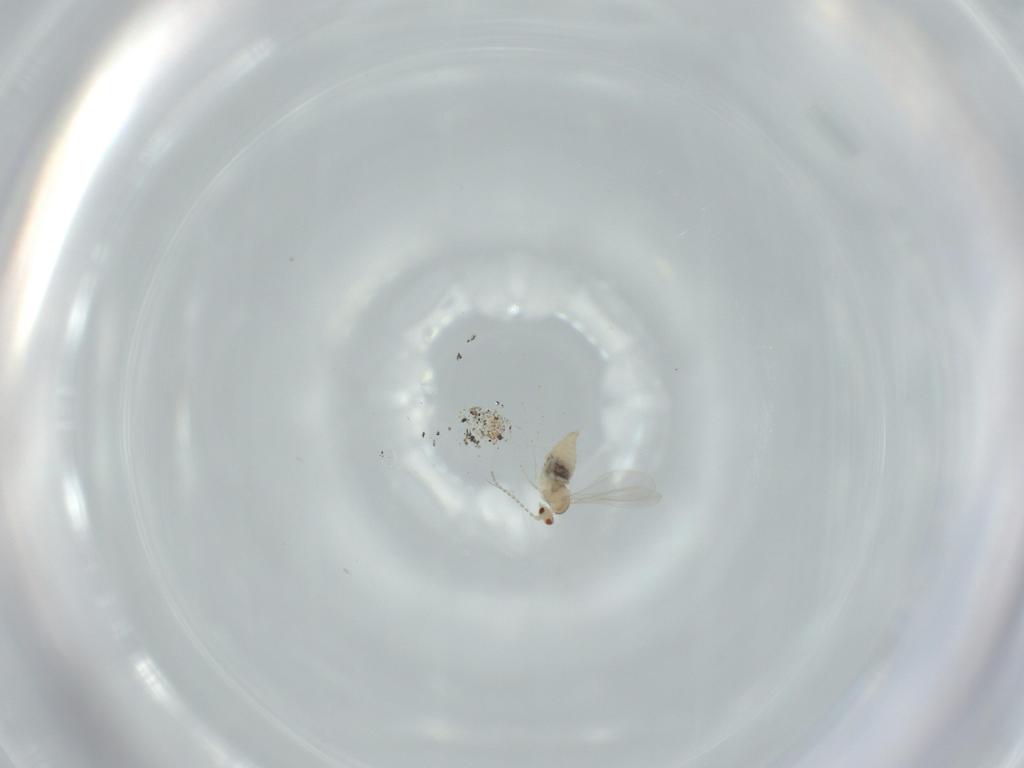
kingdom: Animalia
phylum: Arthropoda
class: Insecta
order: Diptera
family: Cecidomyiidae
